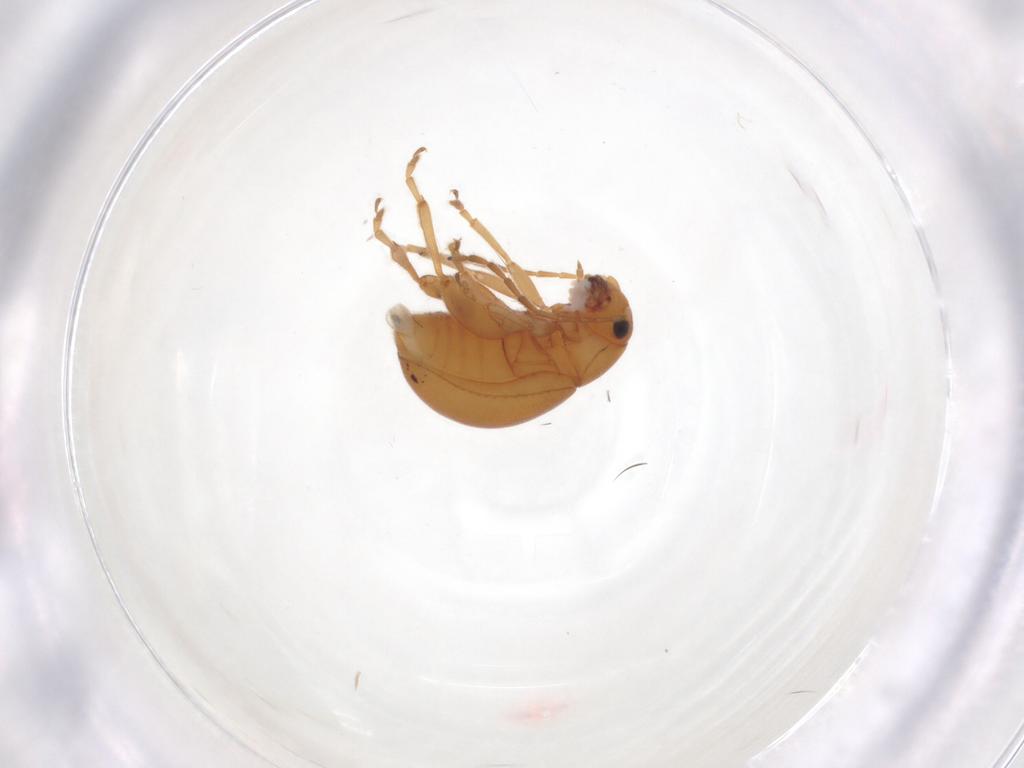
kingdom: Animalia
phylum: Arthropoda
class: Insecta
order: Coleoptera
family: Chrysomelidae
